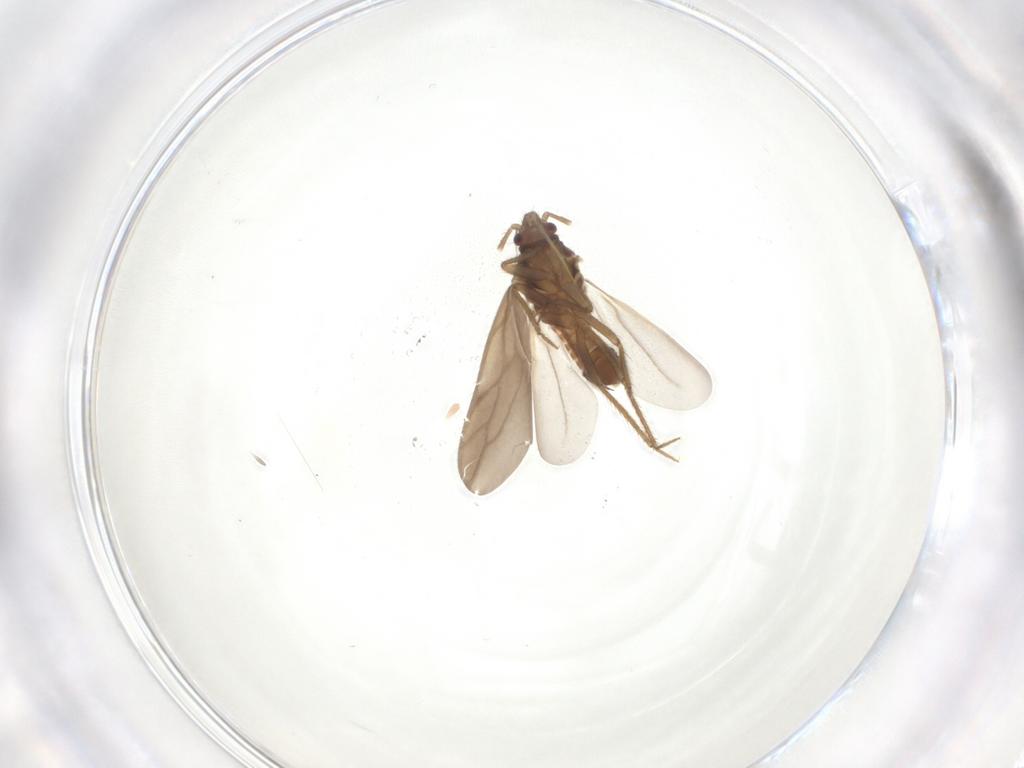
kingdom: Animalia
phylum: Arthropoda
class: Insecta
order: Hemiptera
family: Ceratocombidae
